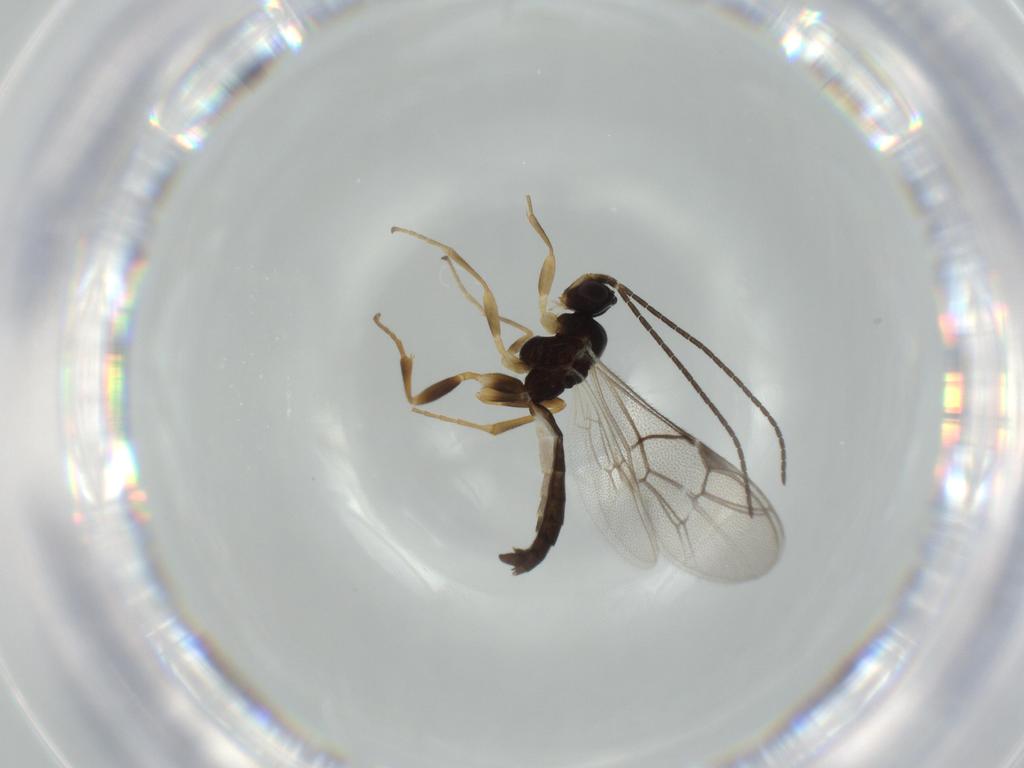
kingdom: Animalia
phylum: Arthropoda
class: Insecta
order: Hymenoptera
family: Ichneumonidae
